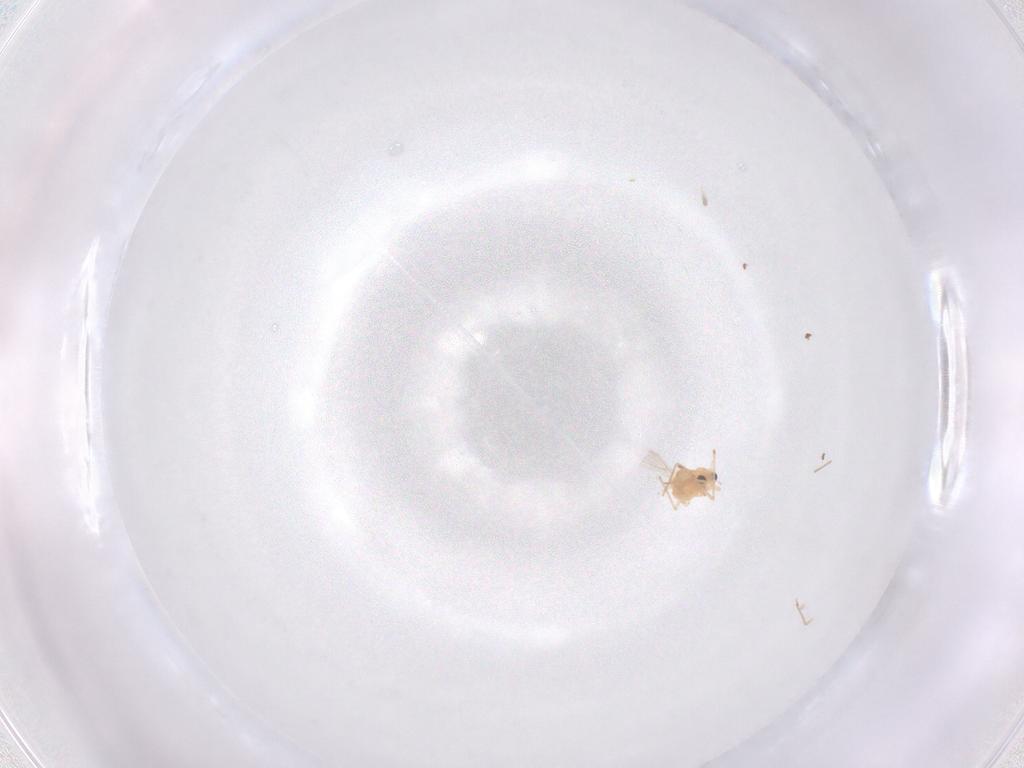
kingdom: Animalia
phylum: Arthropoda
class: Insecta
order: Diptera
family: Chironomidae
